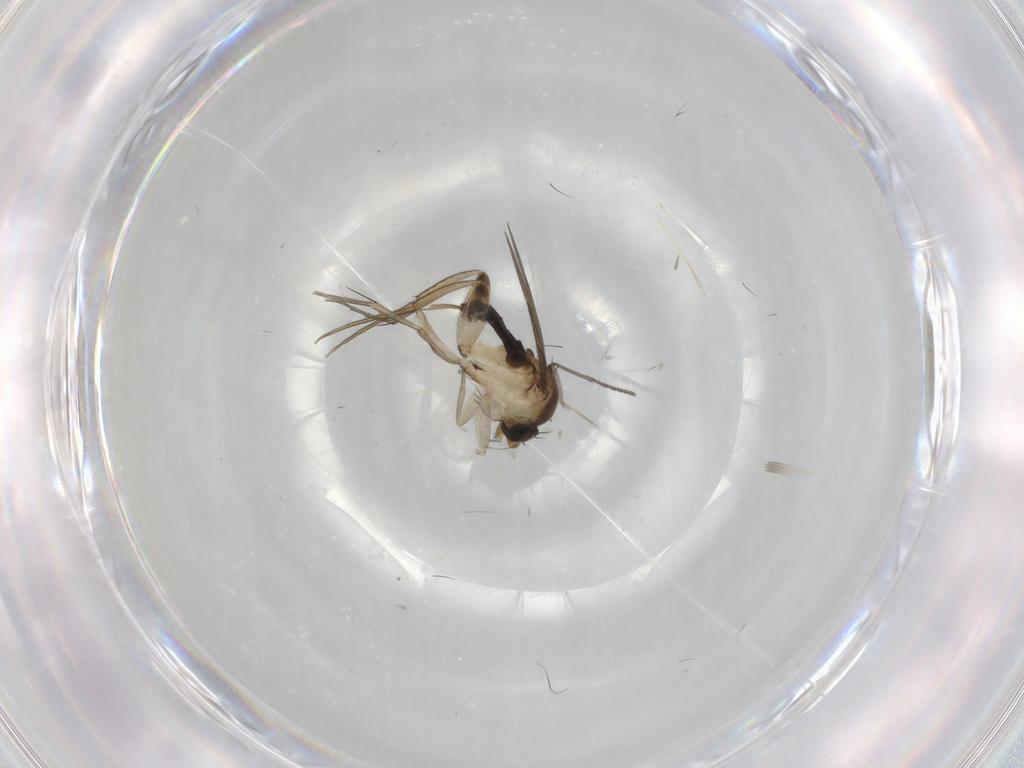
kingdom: Animalia
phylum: Arthropoda
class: Insecta
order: Diptera
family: Phoridae
